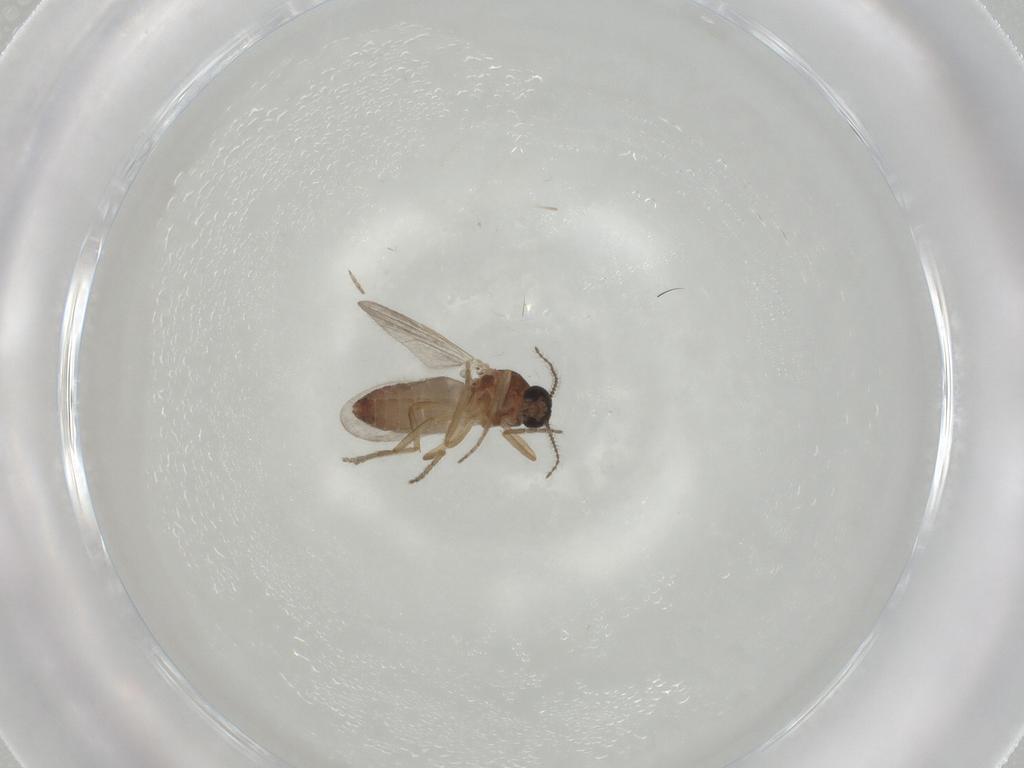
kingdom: Animalia
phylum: Arthropoda
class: Insecta
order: Diptera
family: Ceratopogonidae
